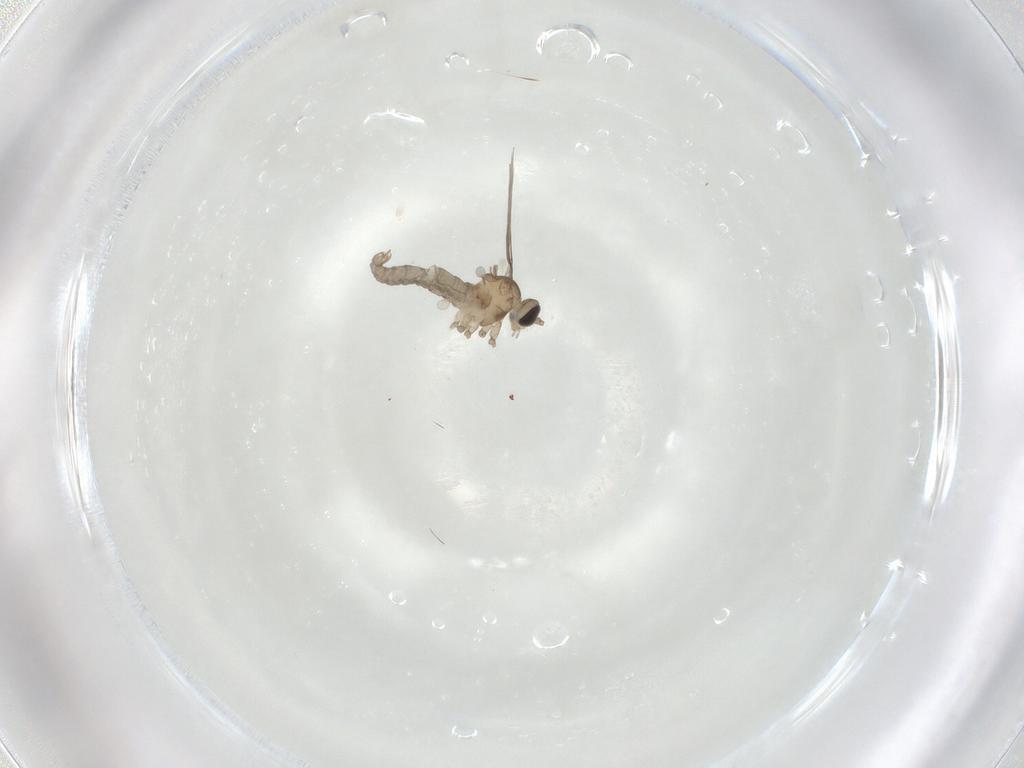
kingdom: Animalia
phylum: Arthropoda
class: Insecta
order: Diptera
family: Cecidomyiidae
